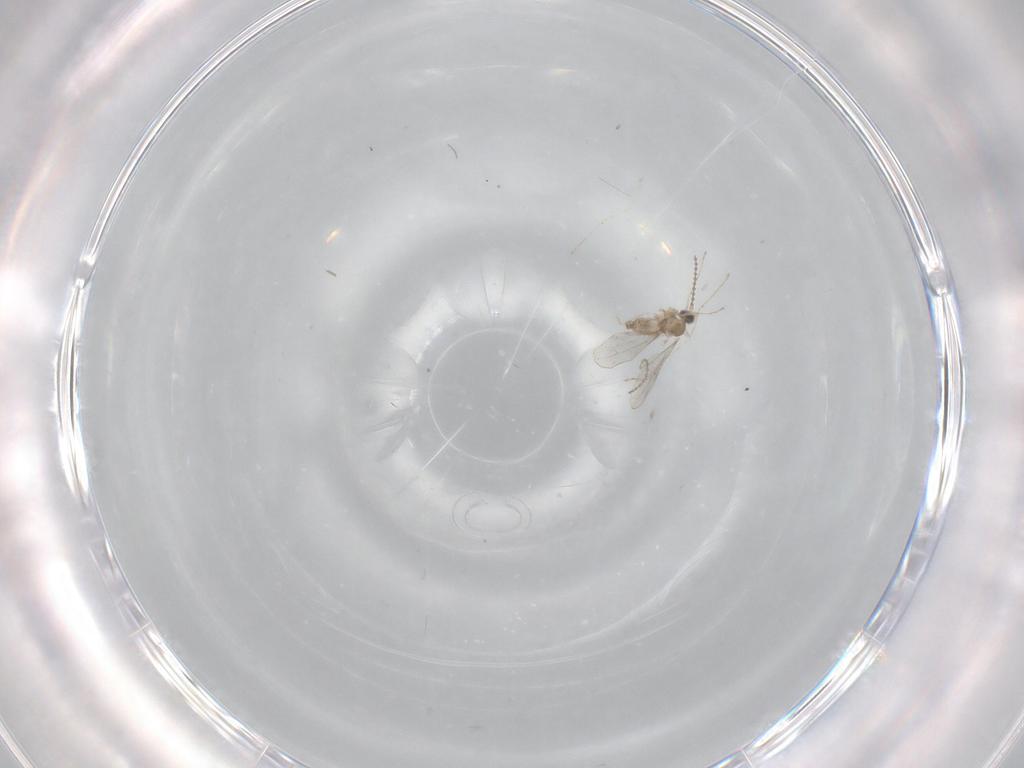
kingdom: Animalia
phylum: Arthropoda
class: Insecta
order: Diptera
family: Cecidomyiidae
